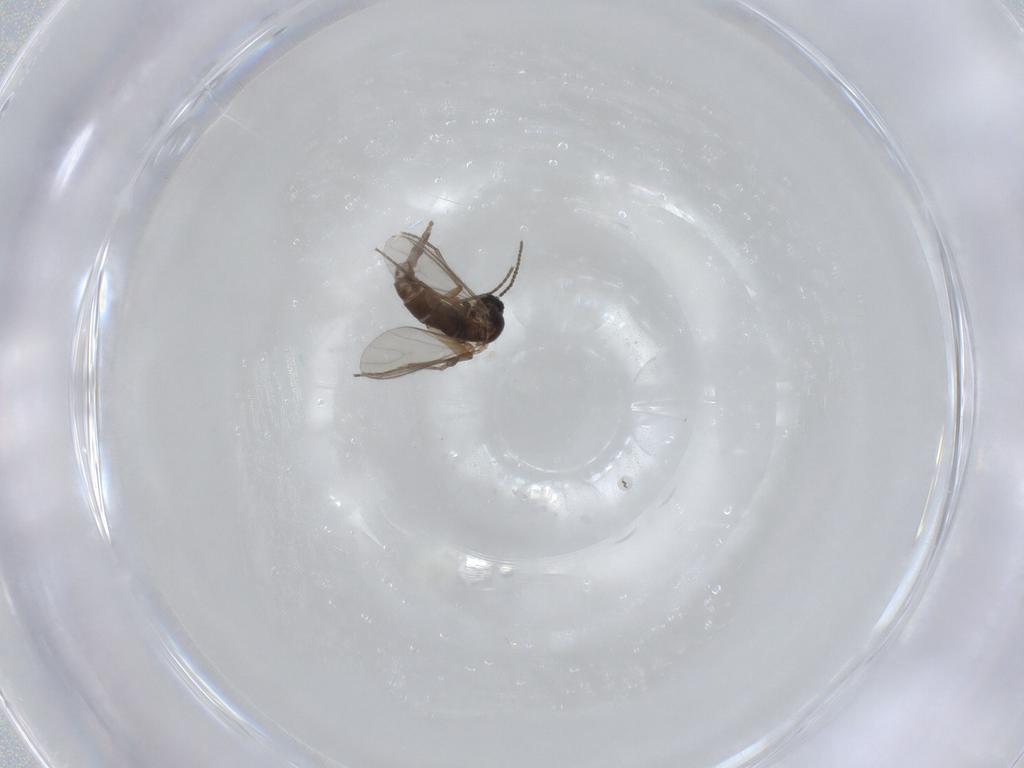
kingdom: Animalia
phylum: Arthropoda
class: Insecta
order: Diptera
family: Sciaridae
